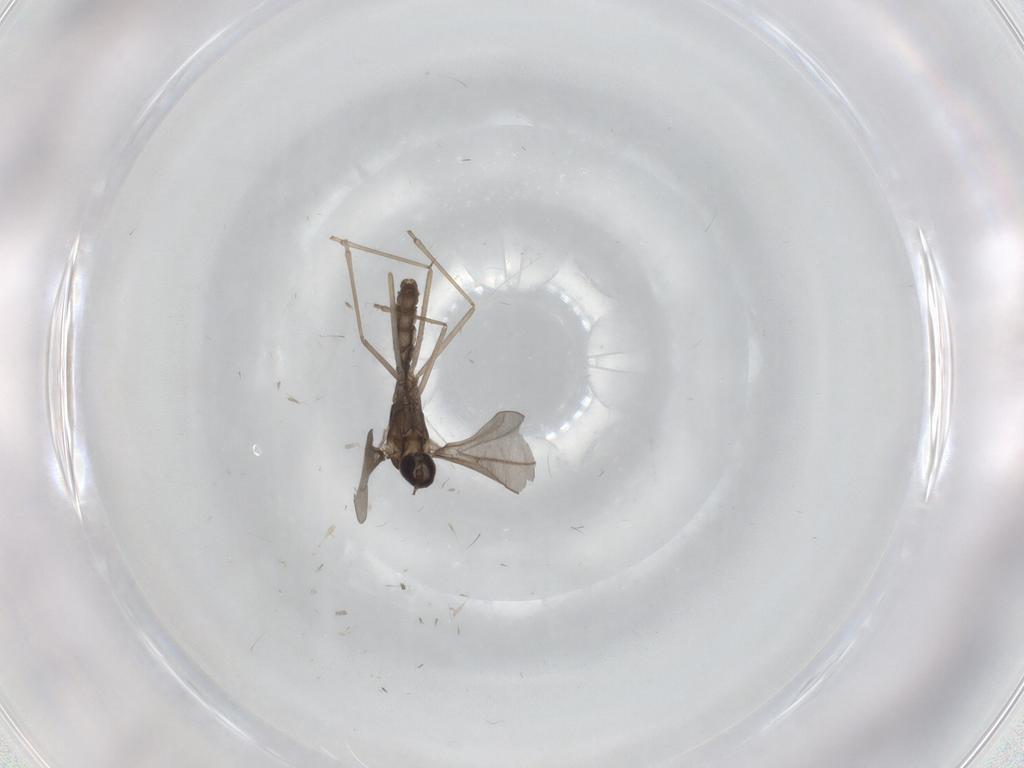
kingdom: Animalia
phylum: Arthropoda
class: Insecta
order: Diptera
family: Cecidomyiidae
